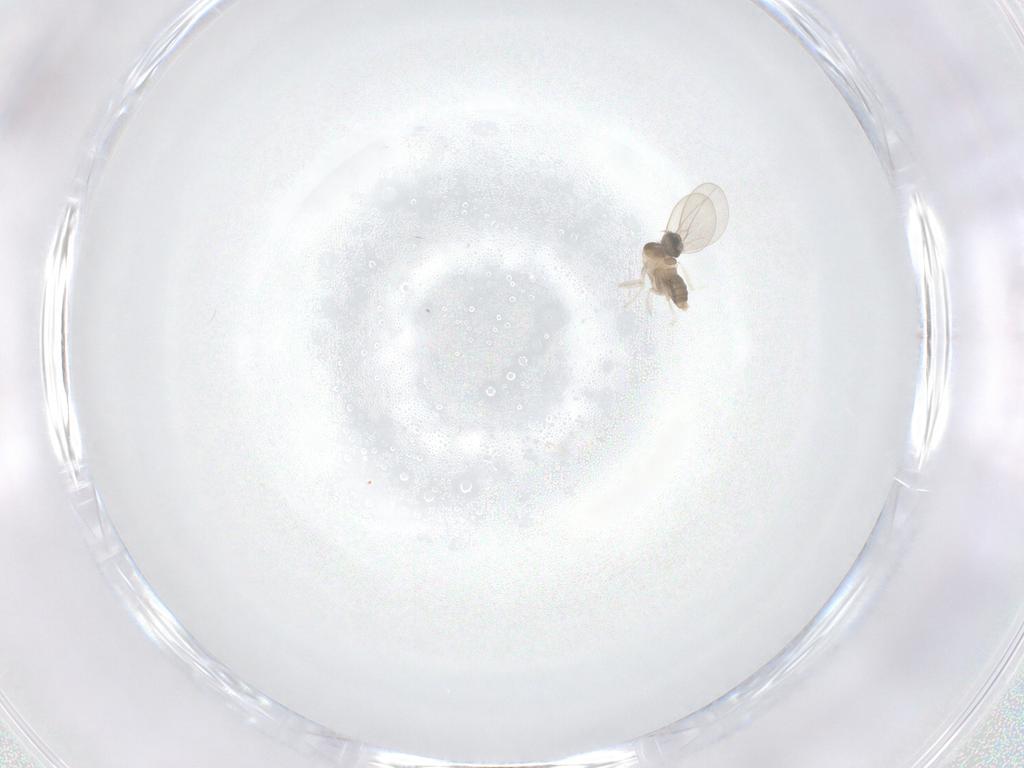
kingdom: Animalia
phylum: Arthropoda
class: Insecta
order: Diptera
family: Cecidomyiidae
